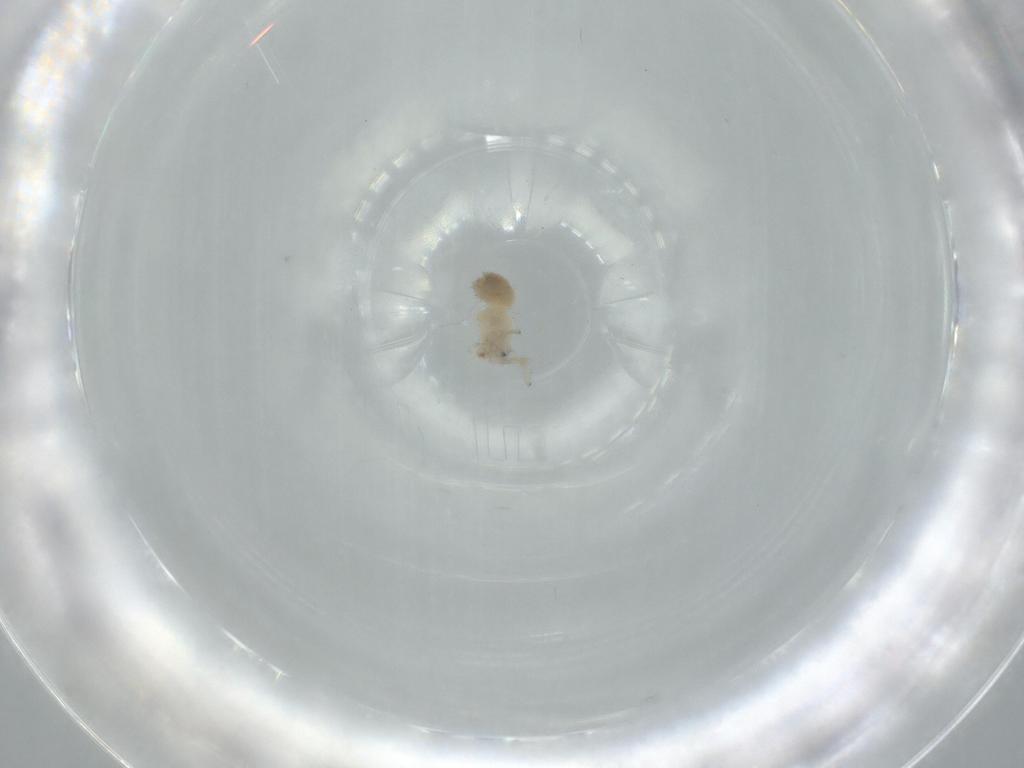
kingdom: Animalia
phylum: Arthropoda
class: Arachnida
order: Araneae
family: Oonopidae
